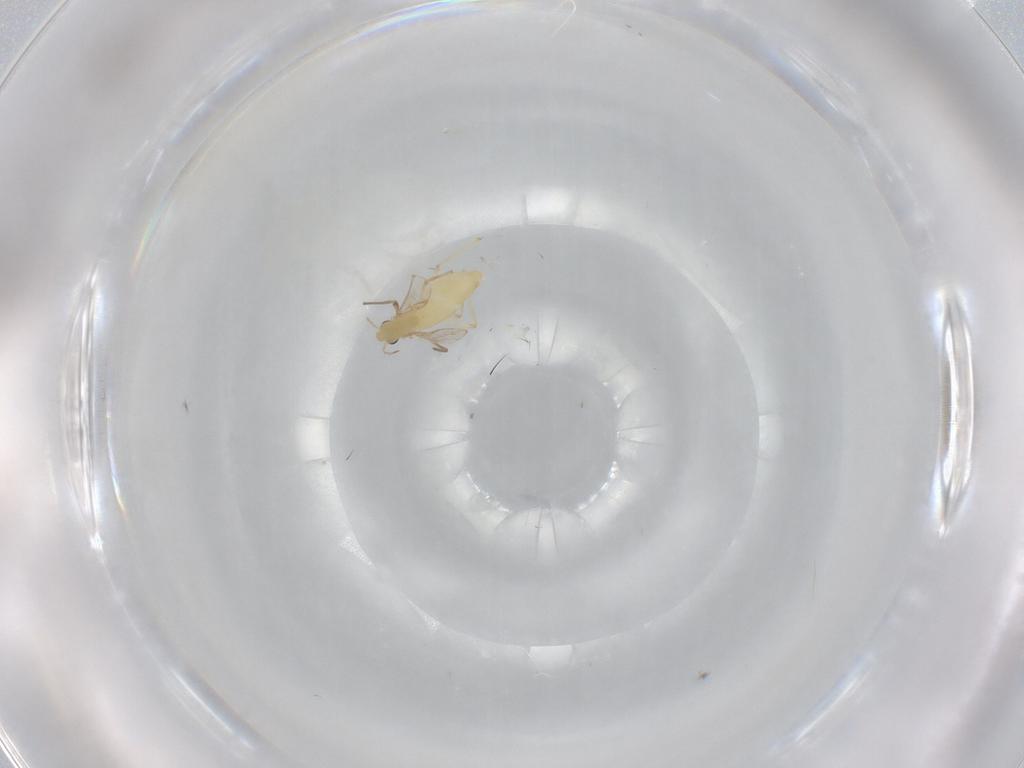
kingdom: Animalia
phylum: Arthropoda
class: Insecta
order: Diptera
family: Chironomidae
